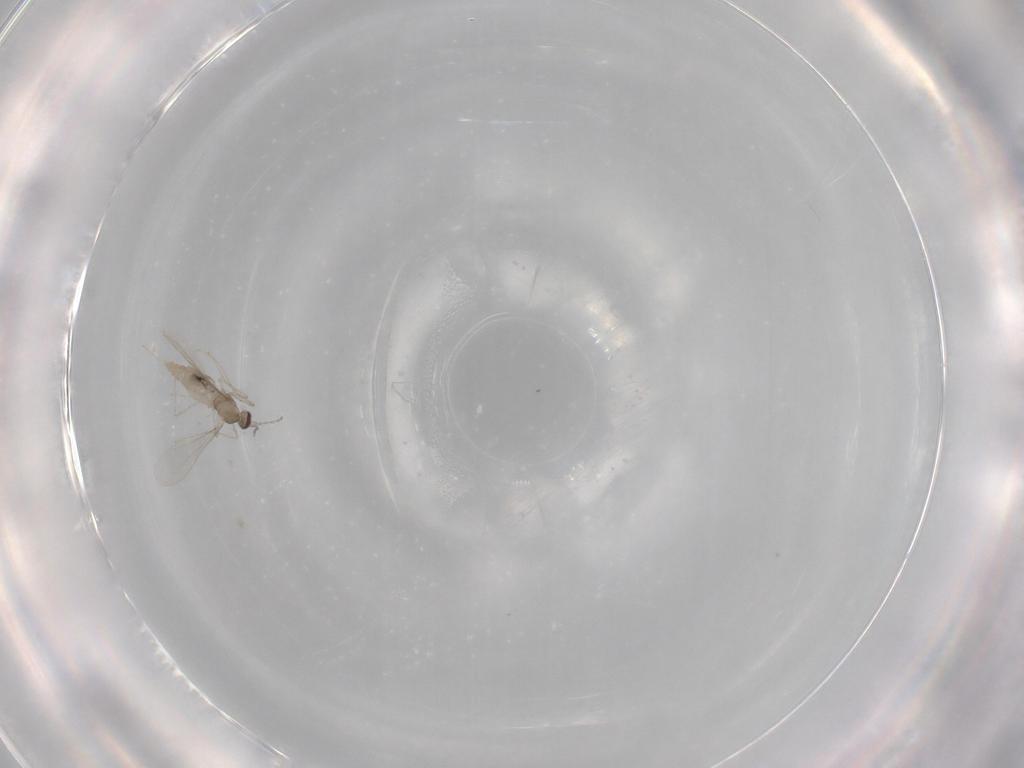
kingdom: Animalia
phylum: Arthropoda
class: Insecta
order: Diptera
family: Cecidomyiidae
